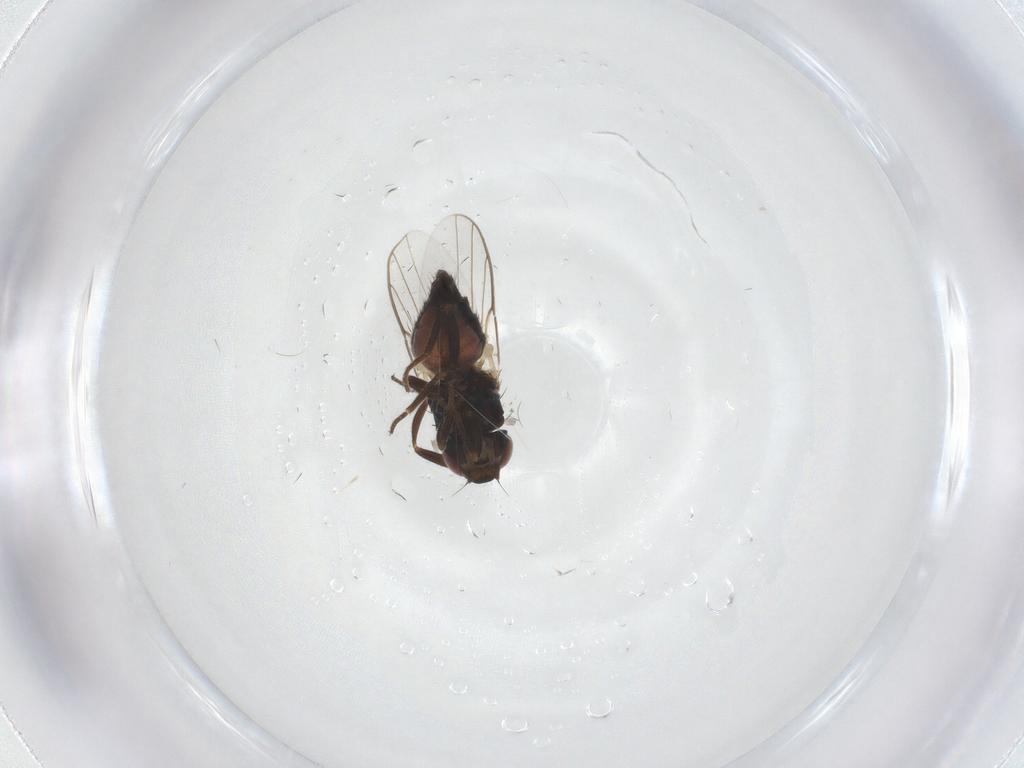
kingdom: Animalia
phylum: Arthropoda
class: Insecta
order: Diptera
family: Chloropidae
